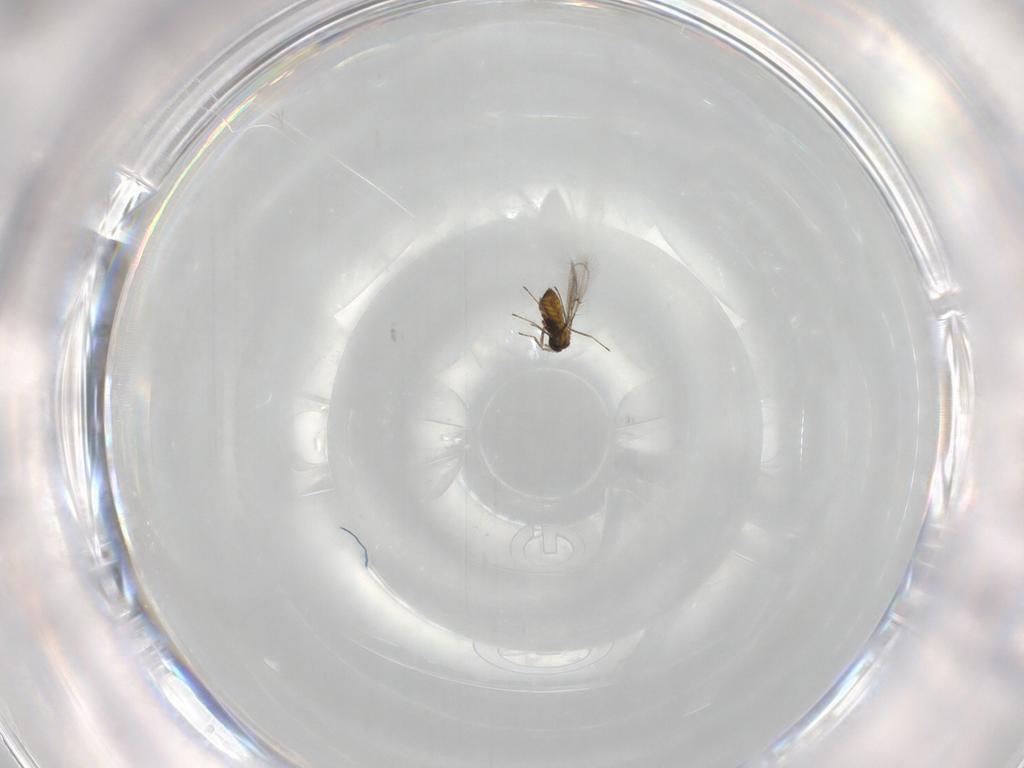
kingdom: Animalia
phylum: Arthropoda
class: Insecta
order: Hymenoptera
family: Trichogrammatidae
